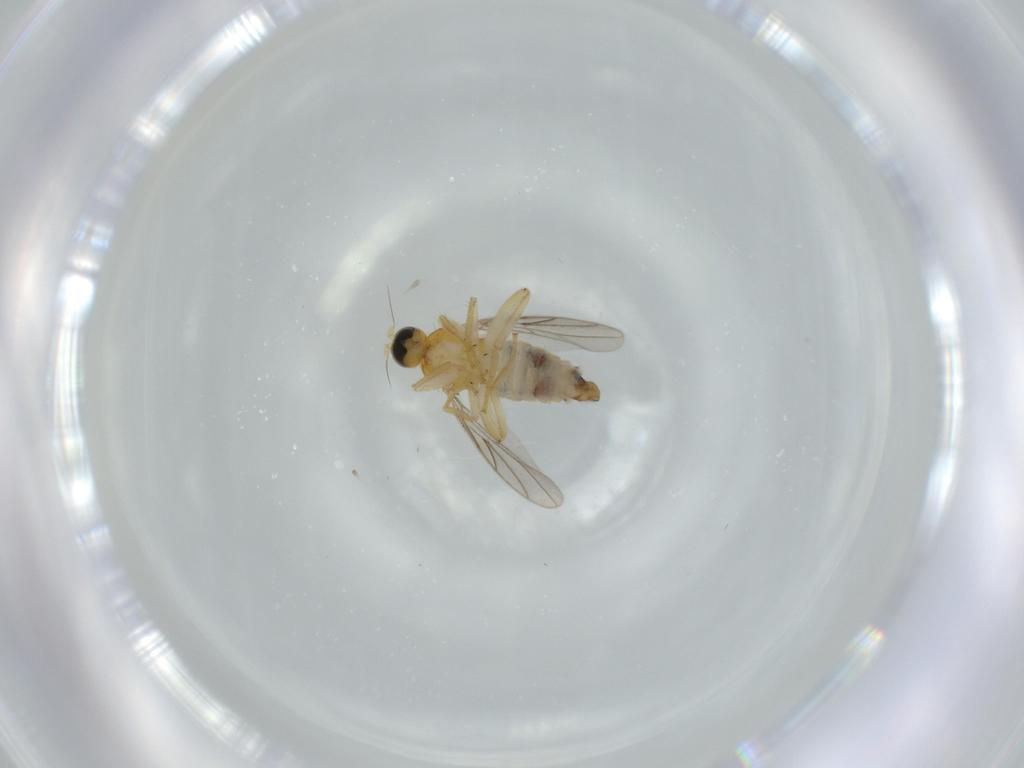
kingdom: Animalia
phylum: Arthropoda
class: Insecta
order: Diptera
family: Hybotidae
